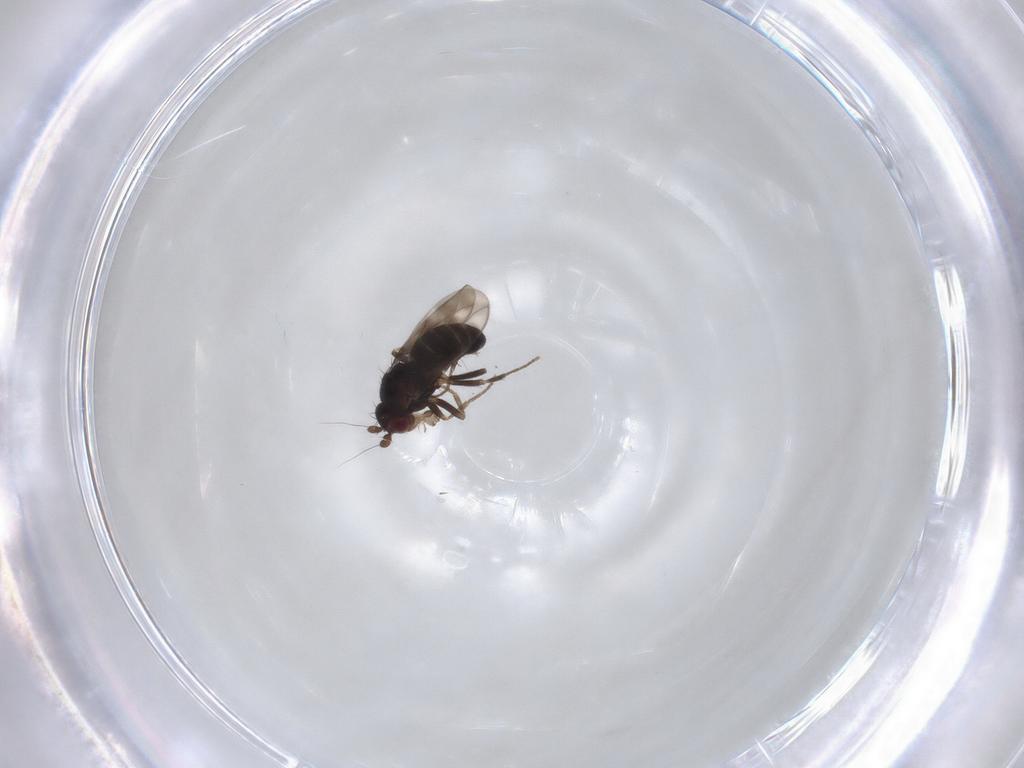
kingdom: Animalia
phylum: Arthropoda
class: Insecta
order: Diptera
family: Sphaeroceridae
